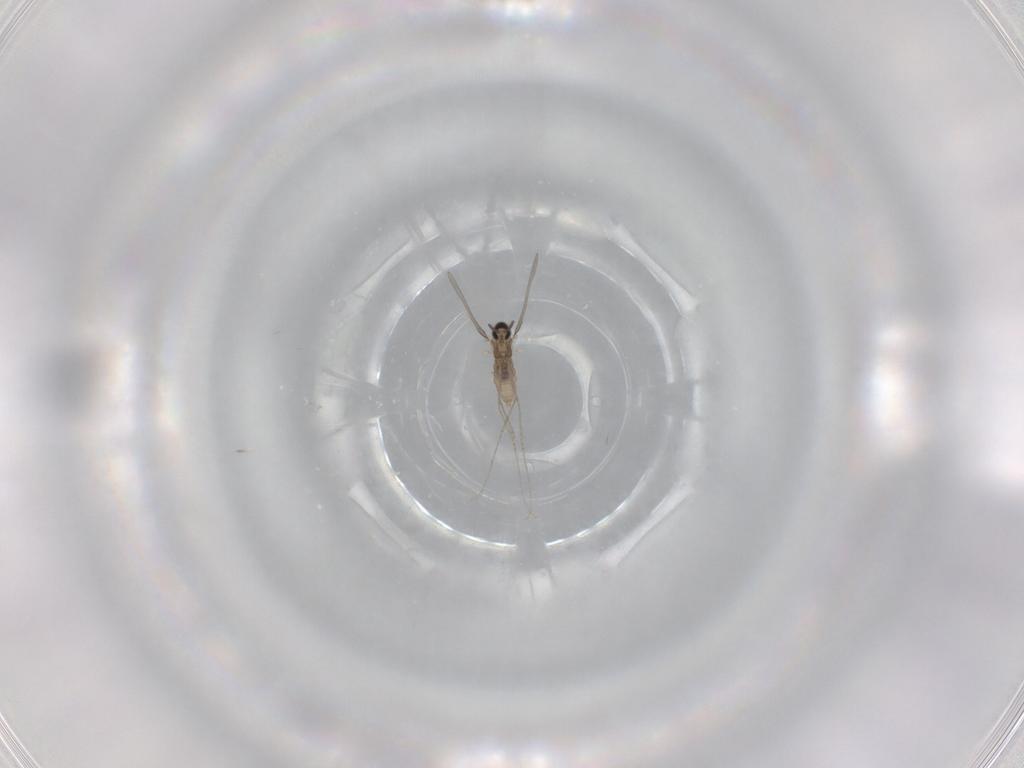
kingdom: Animalia
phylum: Arthropoda
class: Insecta
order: Diptera
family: Cecidomyiidae
